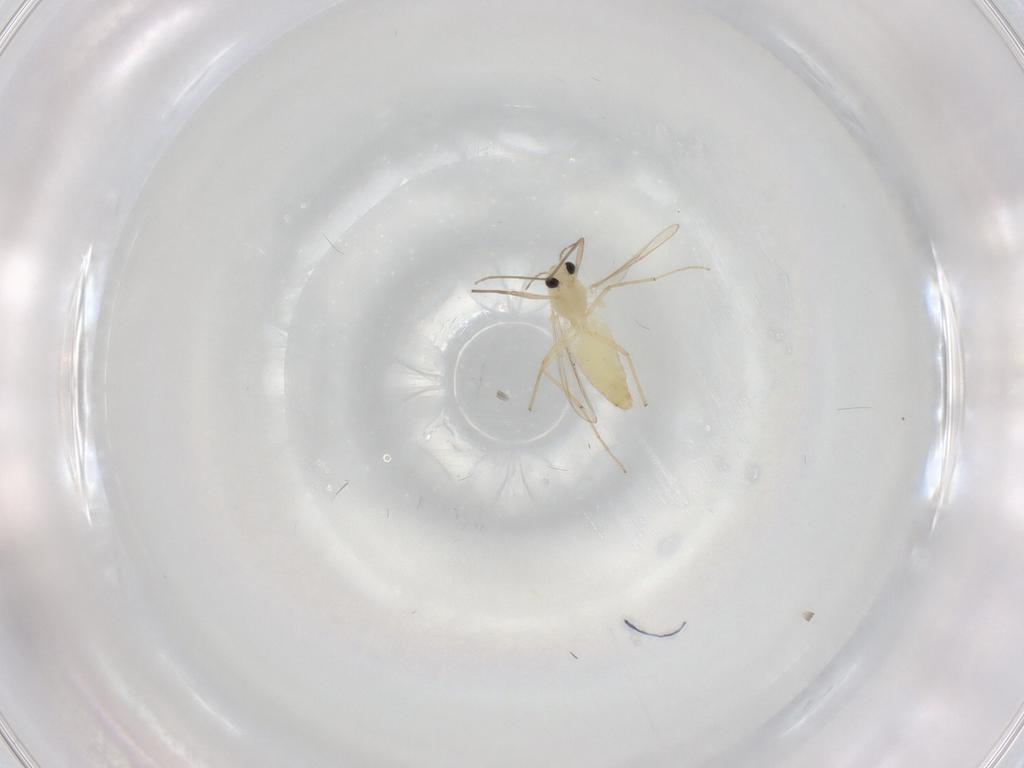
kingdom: Animalia
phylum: Arthropoda
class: Insecta
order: Diptera
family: Chironomidae
